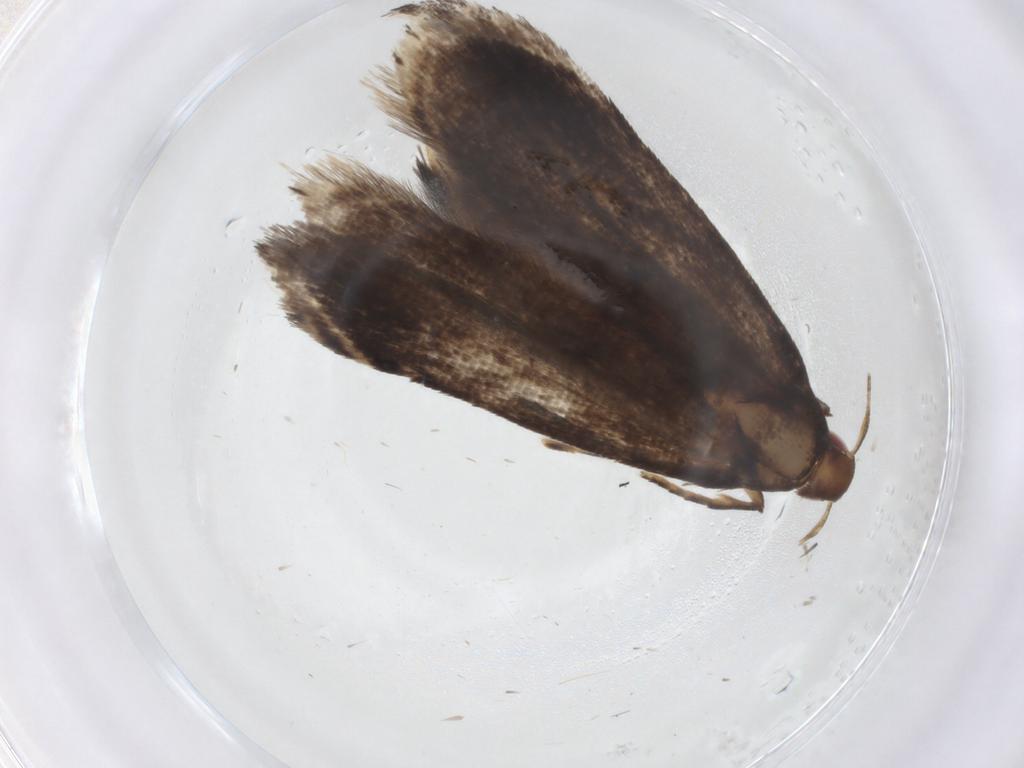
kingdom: Animalia
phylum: Arthropoda
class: Insecta
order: Lepidoptera
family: Gelechiidae
